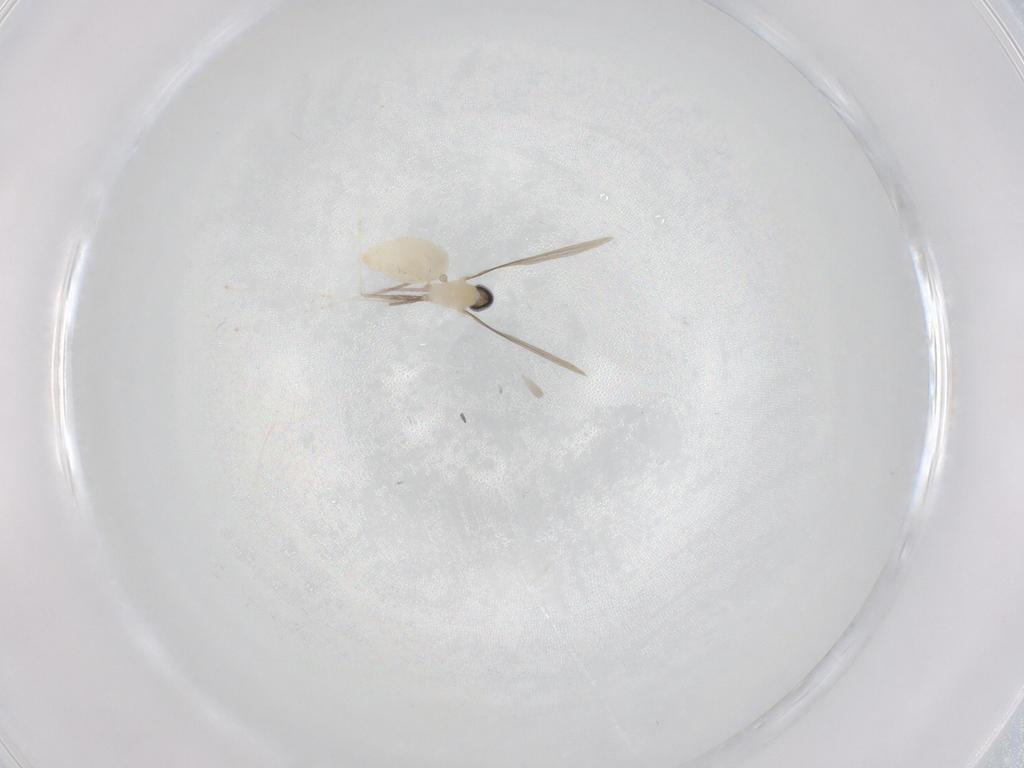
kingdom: Animalia
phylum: Arthropoda
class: Insecta
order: Diptera
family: Cecidomyiidae
